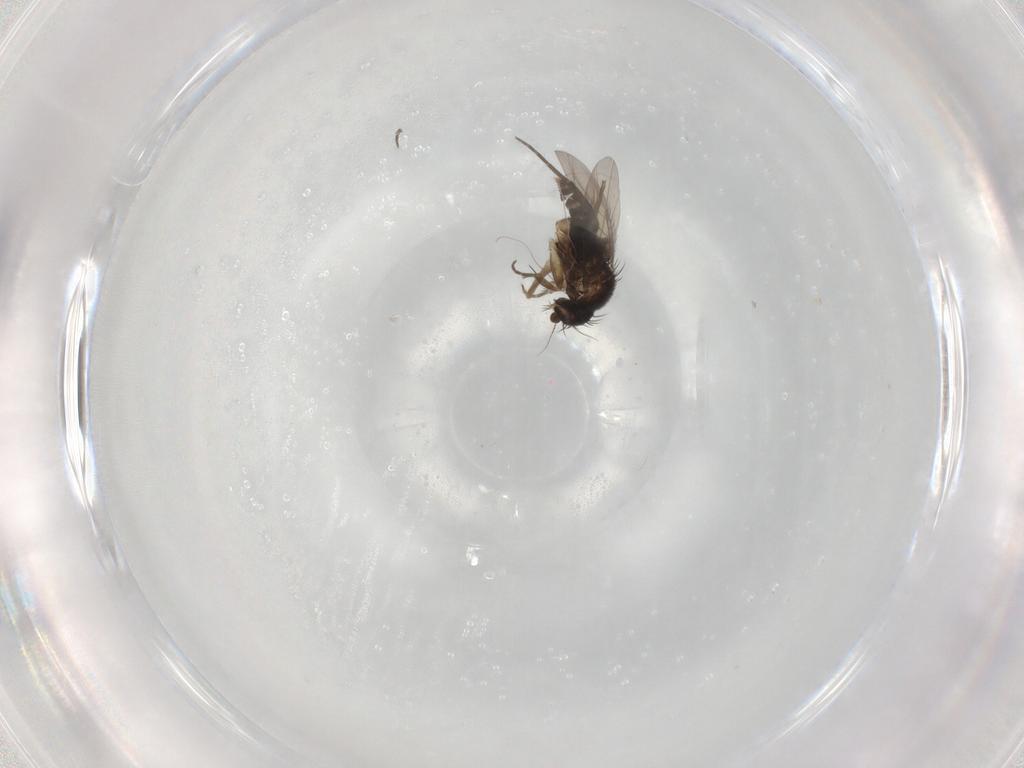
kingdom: Animalia
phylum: Arthropoda
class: Insecta
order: Diptera
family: Phoridae
